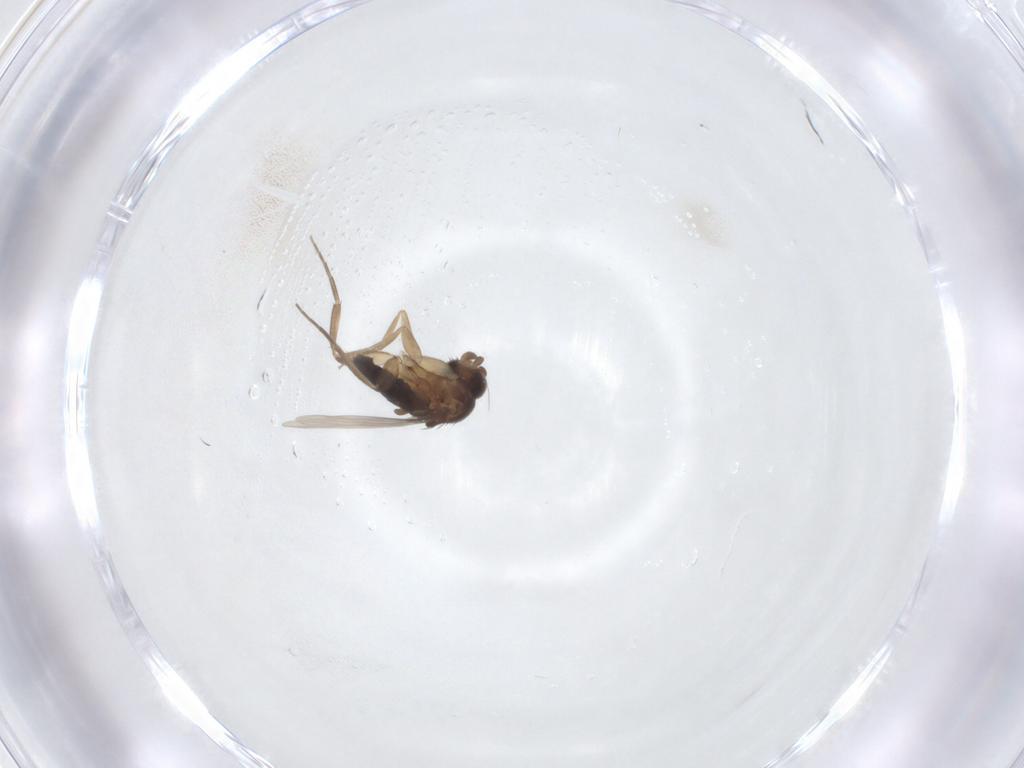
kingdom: Animalia
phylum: Arthropoda
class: Insecta
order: Diptera
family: Phoridae
